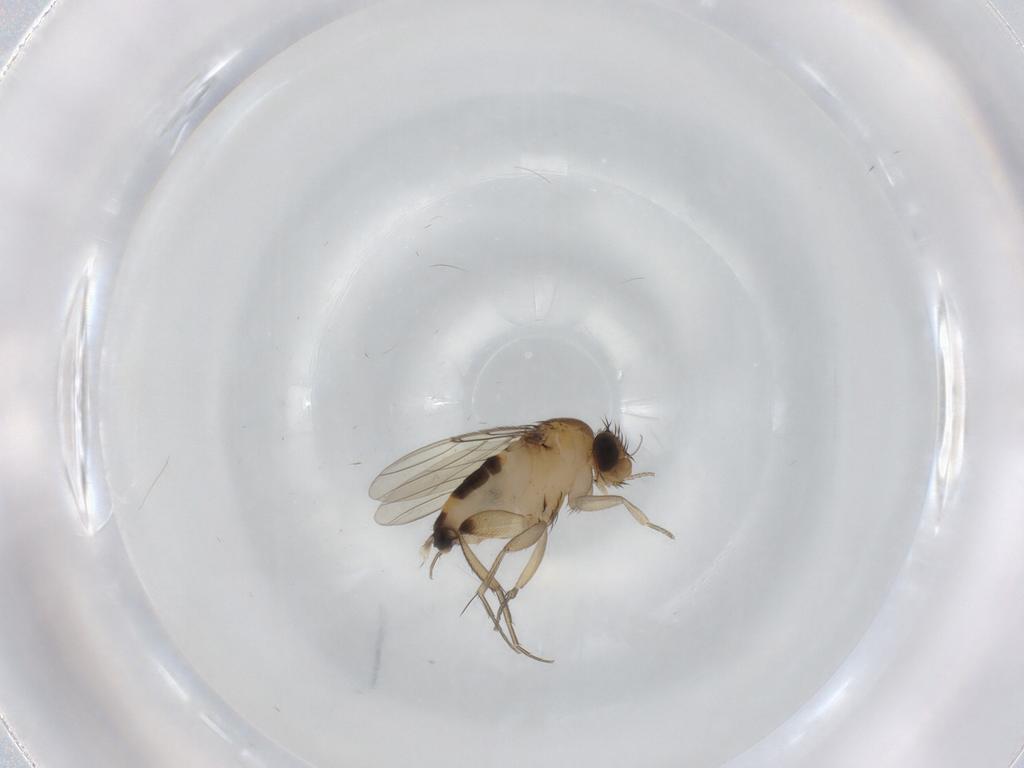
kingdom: Animalia
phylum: Arthropoda
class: Insecta
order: Diptera
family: Phoridae
